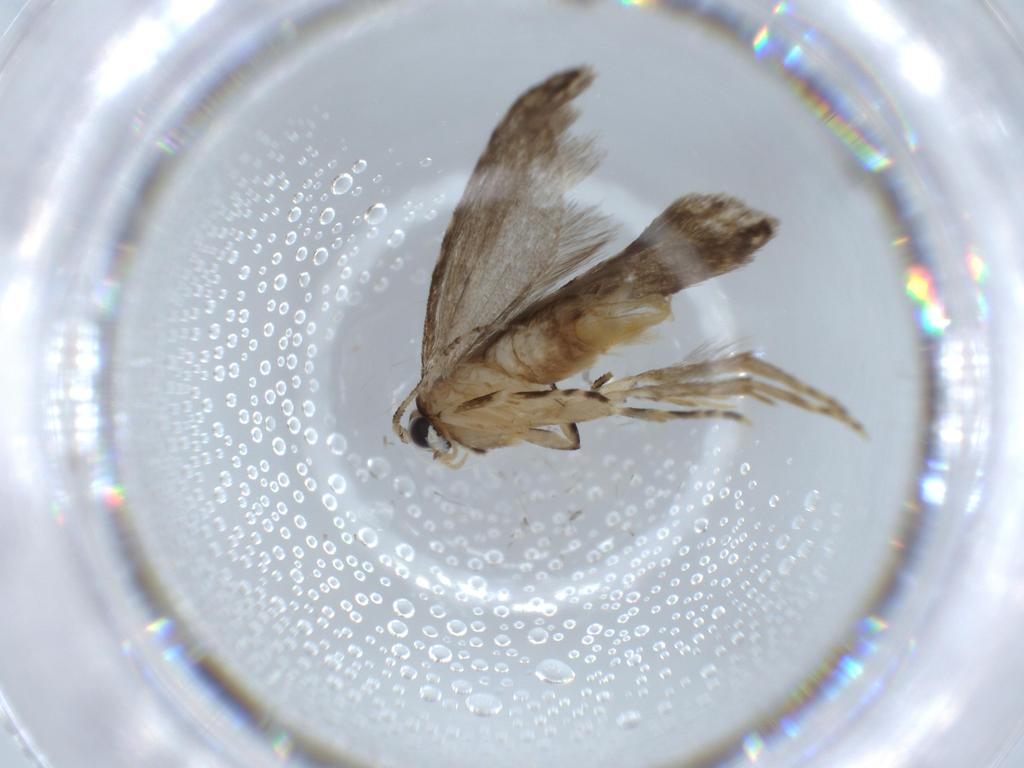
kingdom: Animalia
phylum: Arthropoda
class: Insecta
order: Lepidoptera
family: Tineidae
